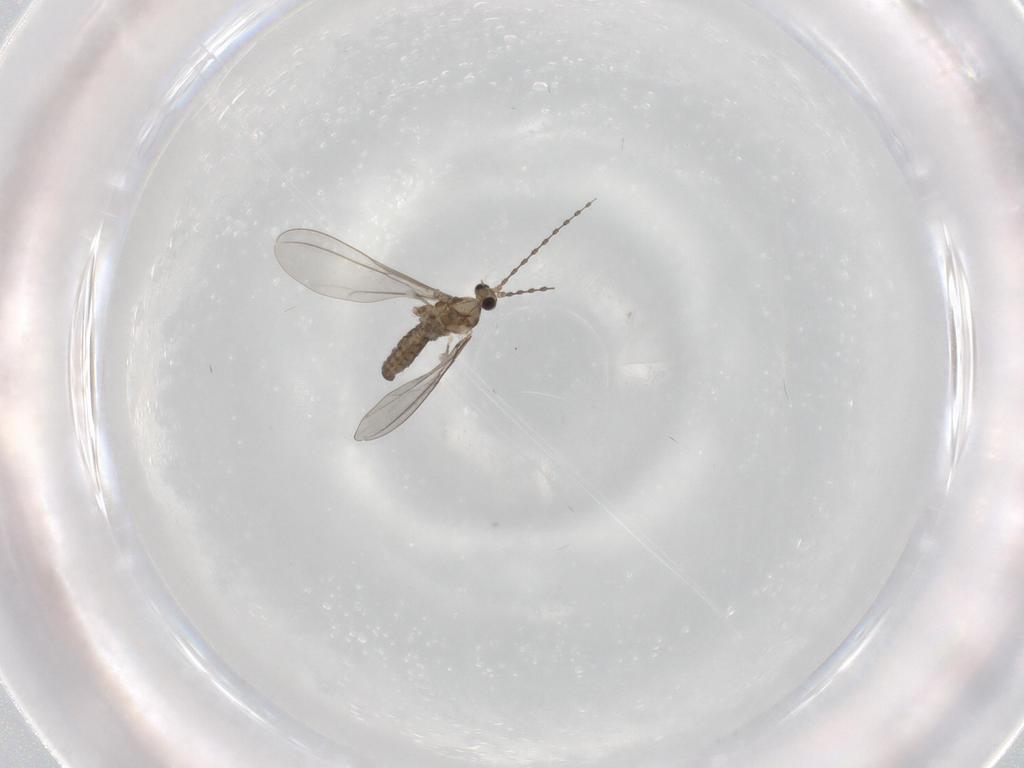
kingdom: Animalia
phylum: Arthropoda
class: Insecta
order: Diptera
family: Cecidomyiidae
